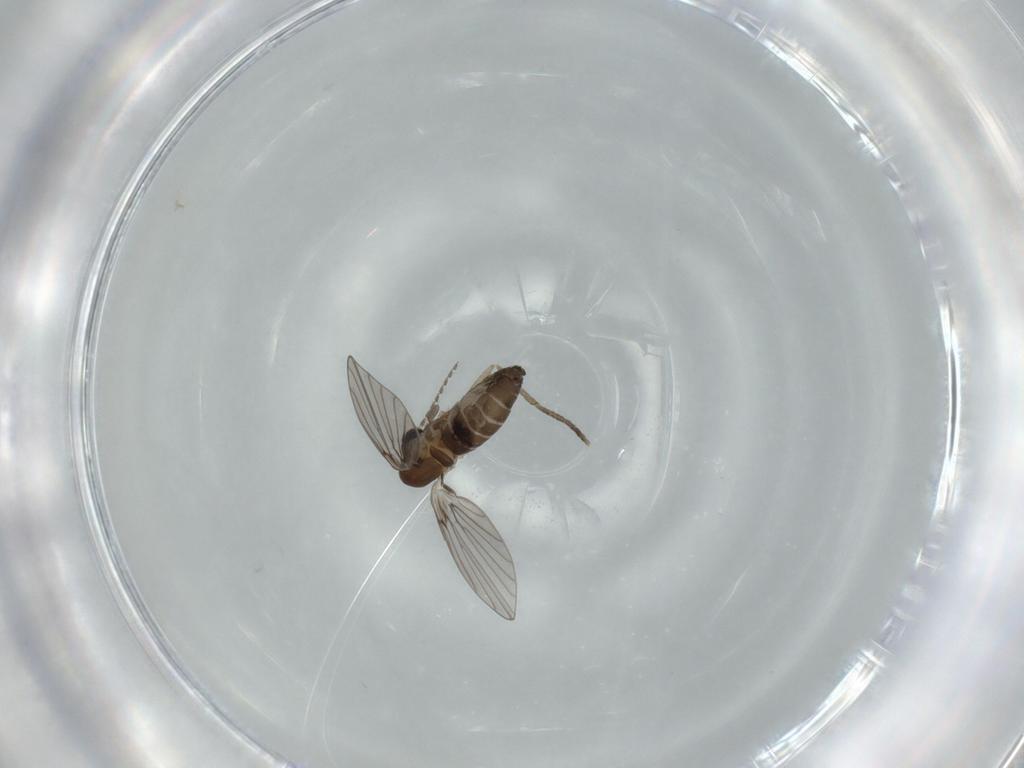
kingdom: Animalia
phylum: Arthropoda
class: Insecta
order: Diptera
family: Psychodidae
